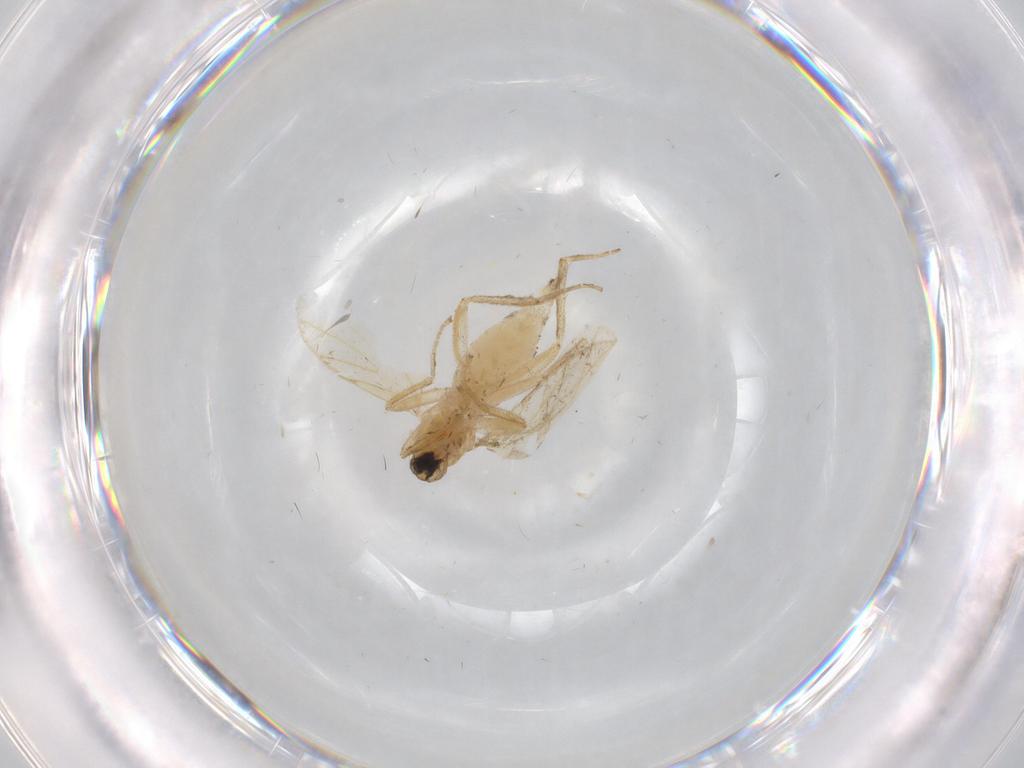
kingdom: Animalia
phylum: Arthropoda
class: Insecta
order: Diptera
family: Hybotidae
